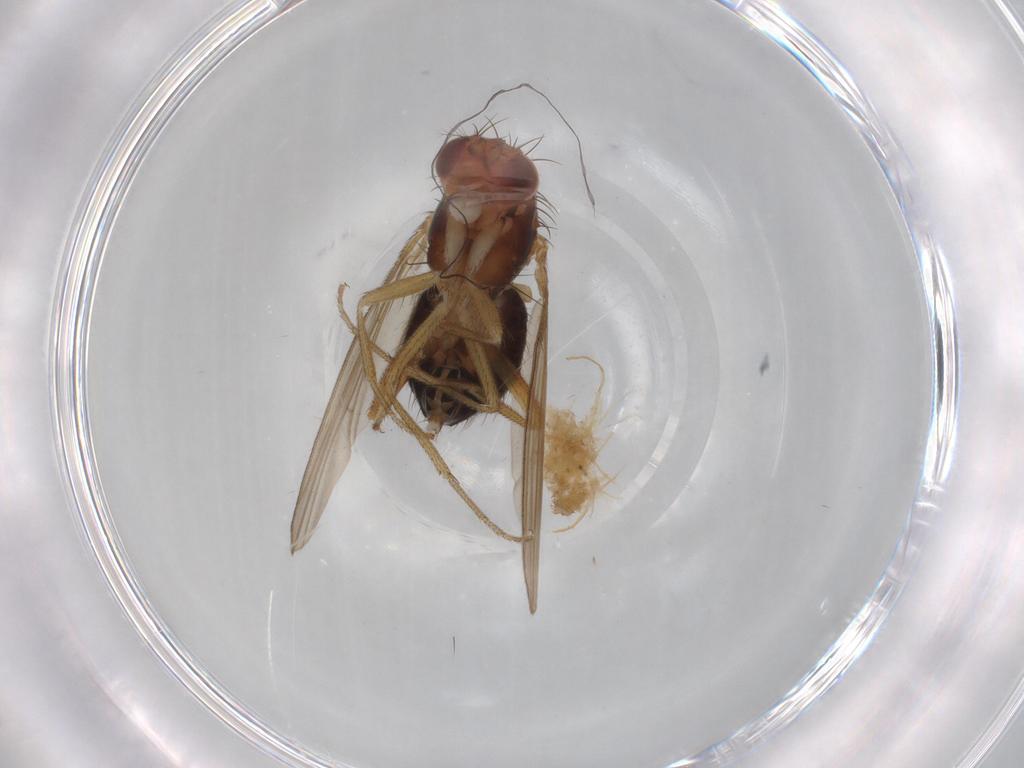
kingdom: Animalia
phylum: Arthropoda
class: Insecta
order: Diptera
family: Drosophilidae
